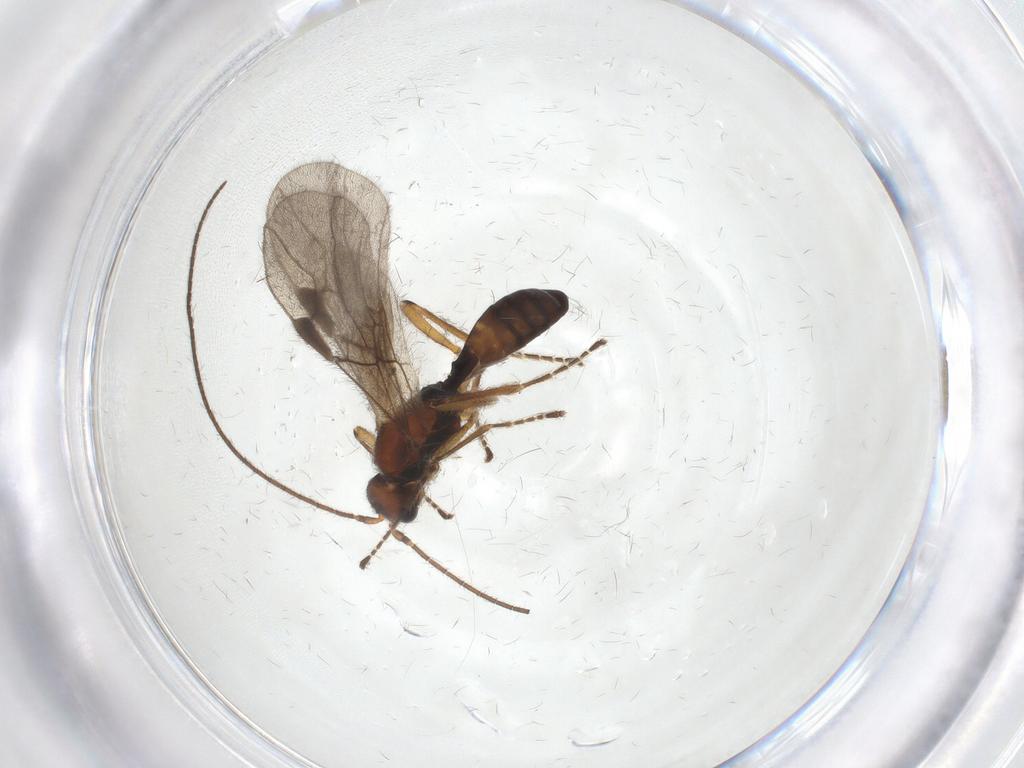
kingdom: Animalia
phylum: Arthropoda
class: Insecta
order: Hymenoptera
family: Braconidae
